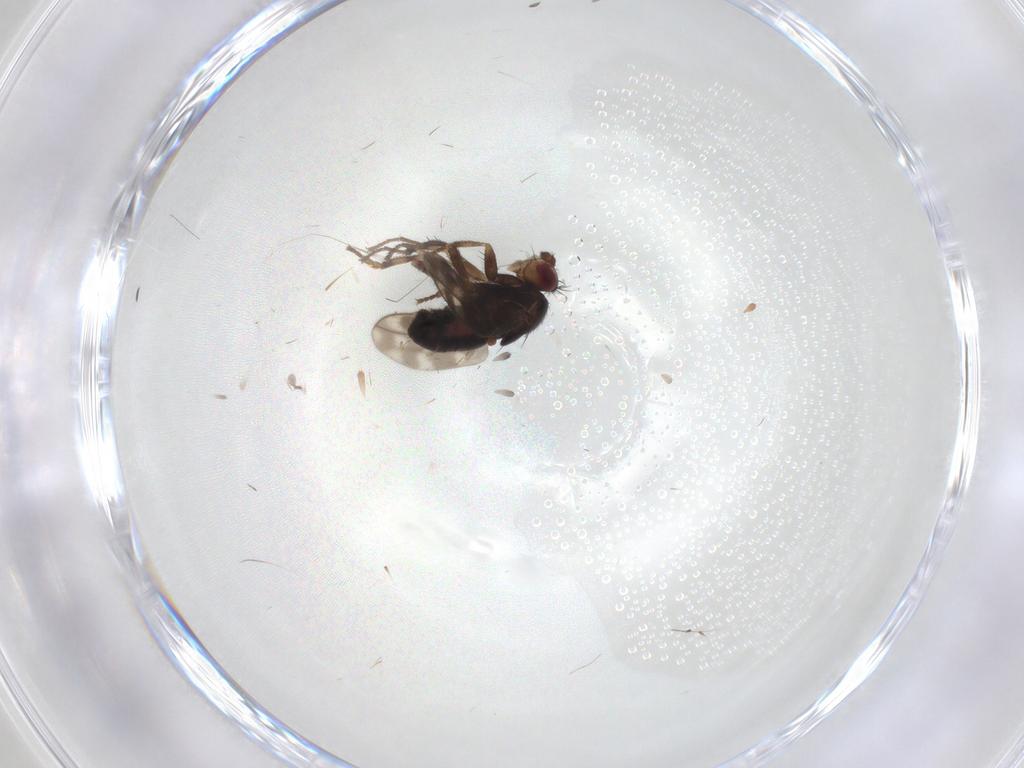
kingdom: Animalia
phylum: Arthropoda
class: Insecta
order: Diptera
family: Sphaeroceridae
